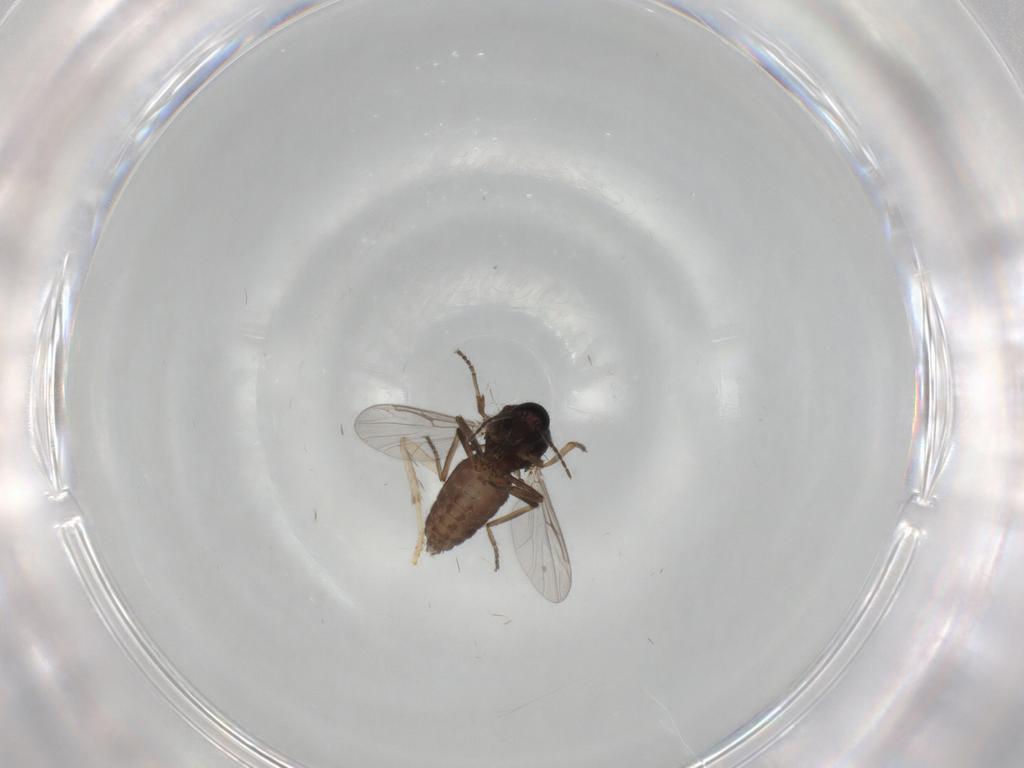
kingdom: Animalia
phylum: Arthropoda
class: Insecta
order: Diptera
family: Ceratopogonidae
